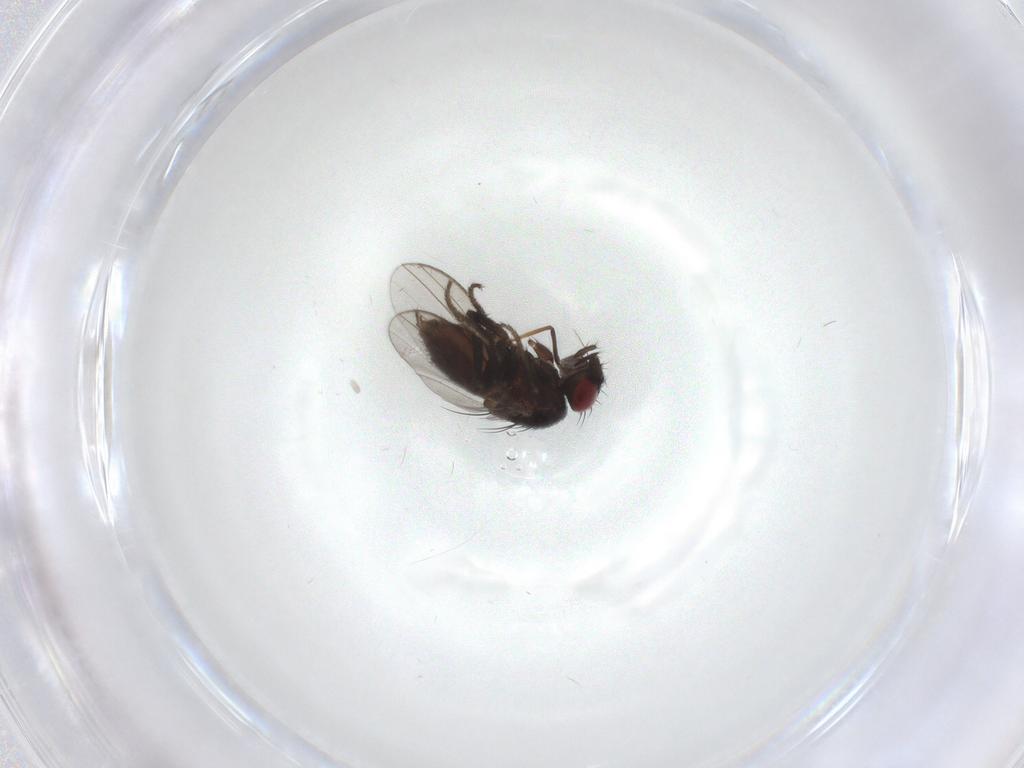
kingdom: Animalia
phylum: Arthropoda
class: Insecta
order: Diptera
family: Milichiidae
